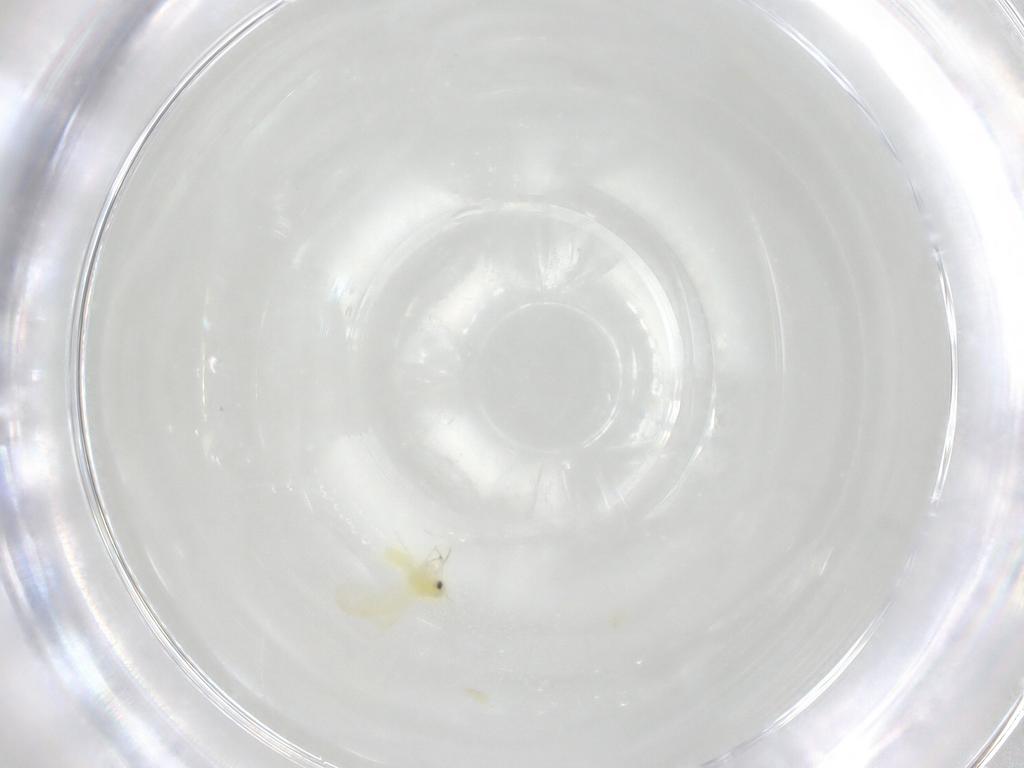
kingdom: Animalia
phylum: Arthropoda
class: Insecta
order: Hemiptera
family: Aleyrodidae
